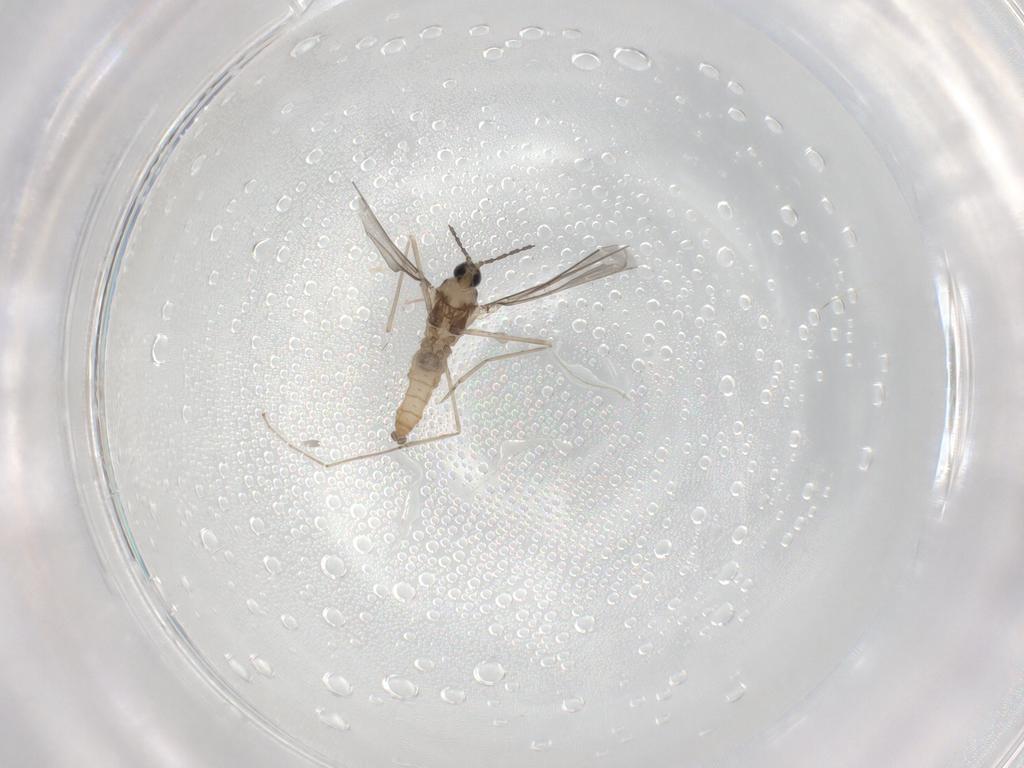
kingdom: Animalia
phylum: Arthropoda
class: Insecta
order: Diptera
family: Cecidomyiidae
